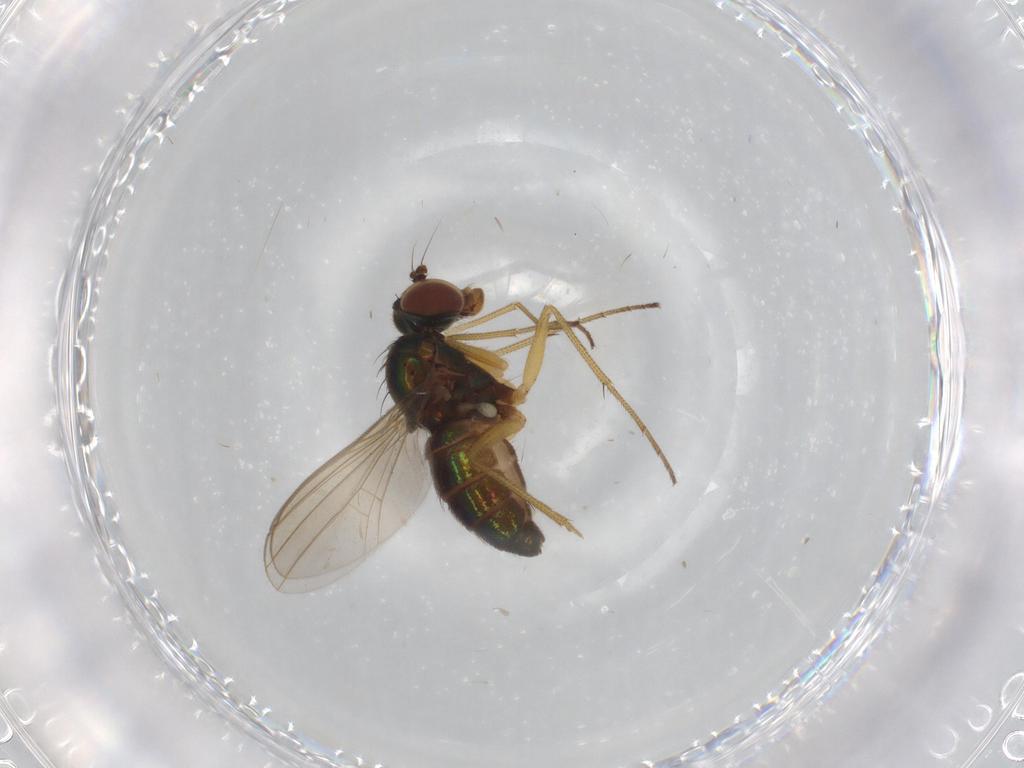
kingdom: Animalia
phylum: Arthropoda
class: Insecta
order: Diptera
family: Dolichopodidae
